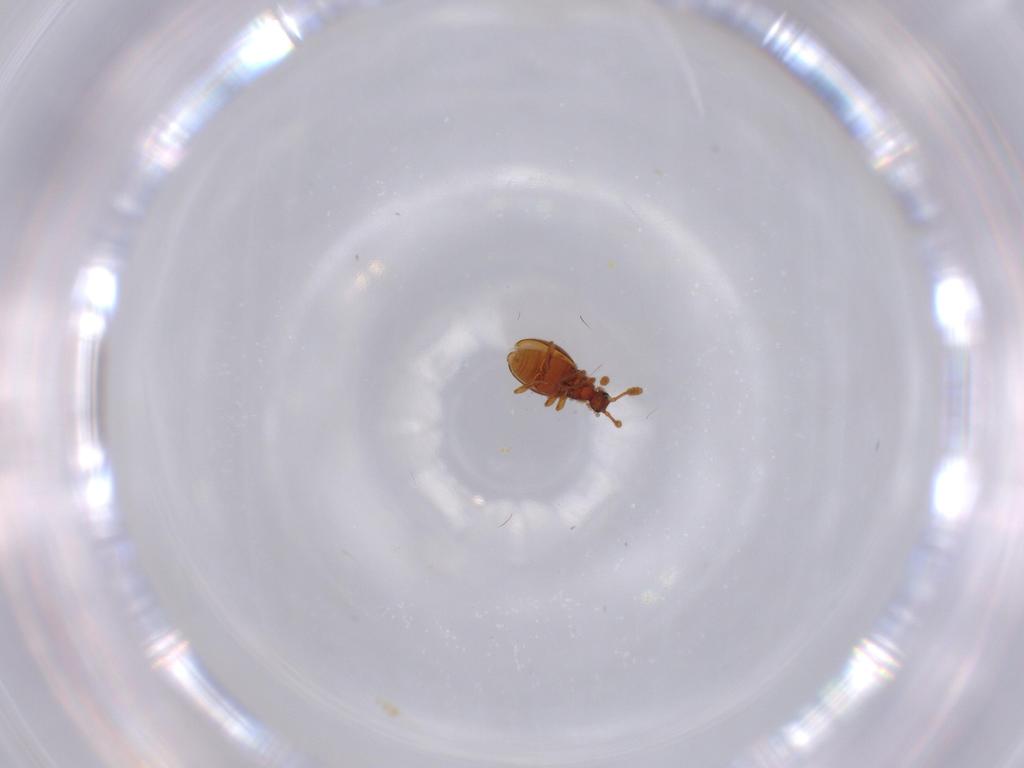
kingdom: Animalia
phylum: Arthropoda
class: Insecta
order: Coleoptera
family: Staphylinidae
